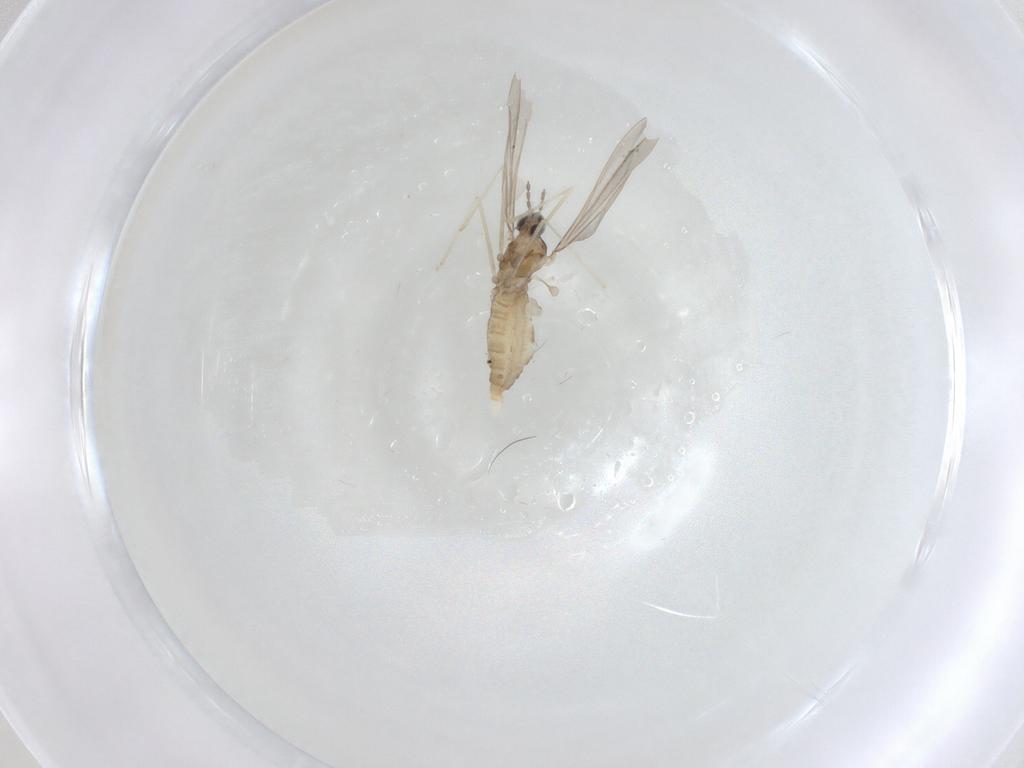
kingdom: Animalia
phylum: Arthropoda
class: Insecta
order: Diptera
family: Cecidomyiidae
